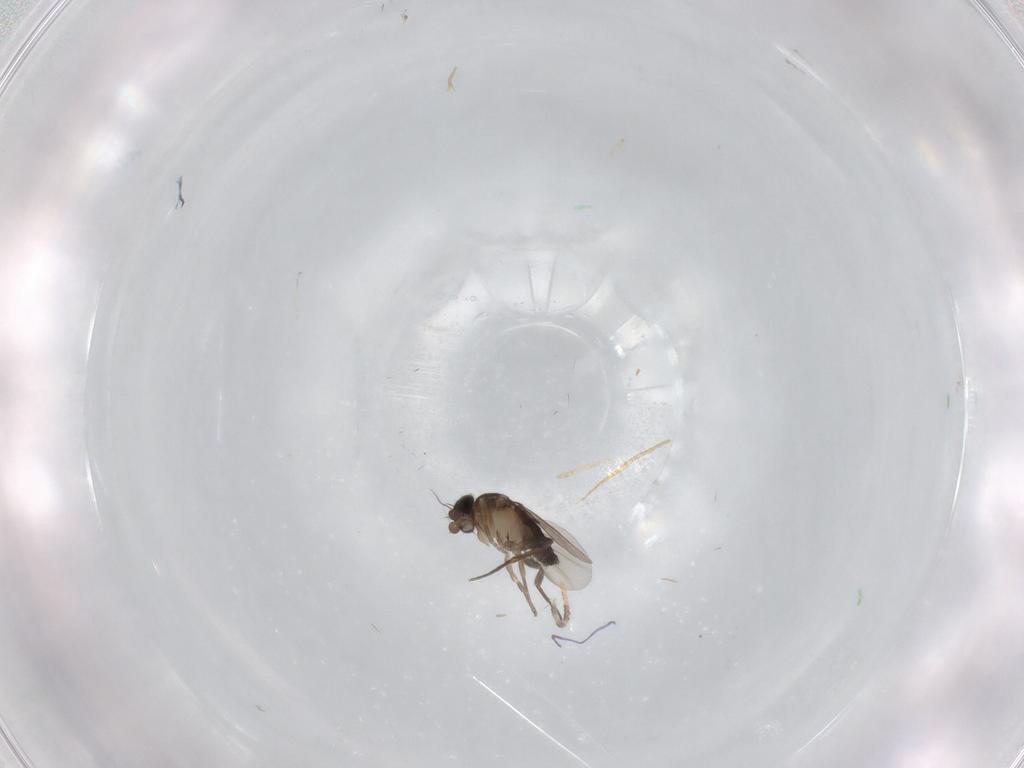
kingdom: Animalia
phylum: Arthropoda
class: Insecta
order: Diptera
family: Phoridae
